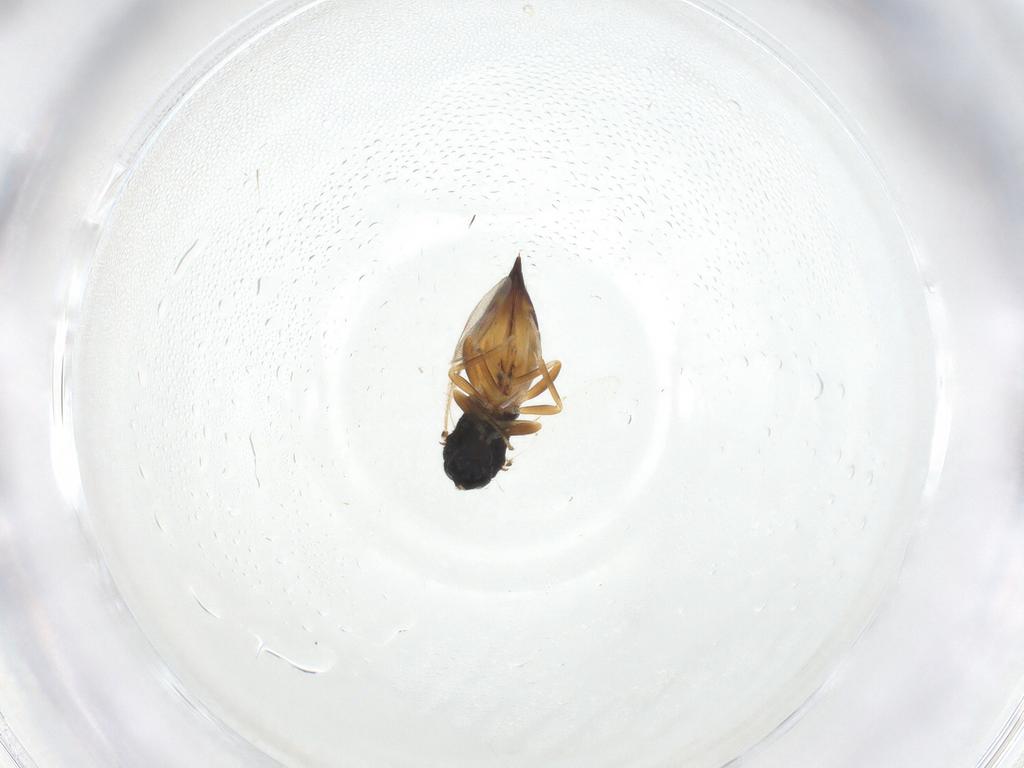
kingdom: Animalia
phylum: Arthropoda
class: Insecta
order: Hymenoptera
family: Pteromalidae
